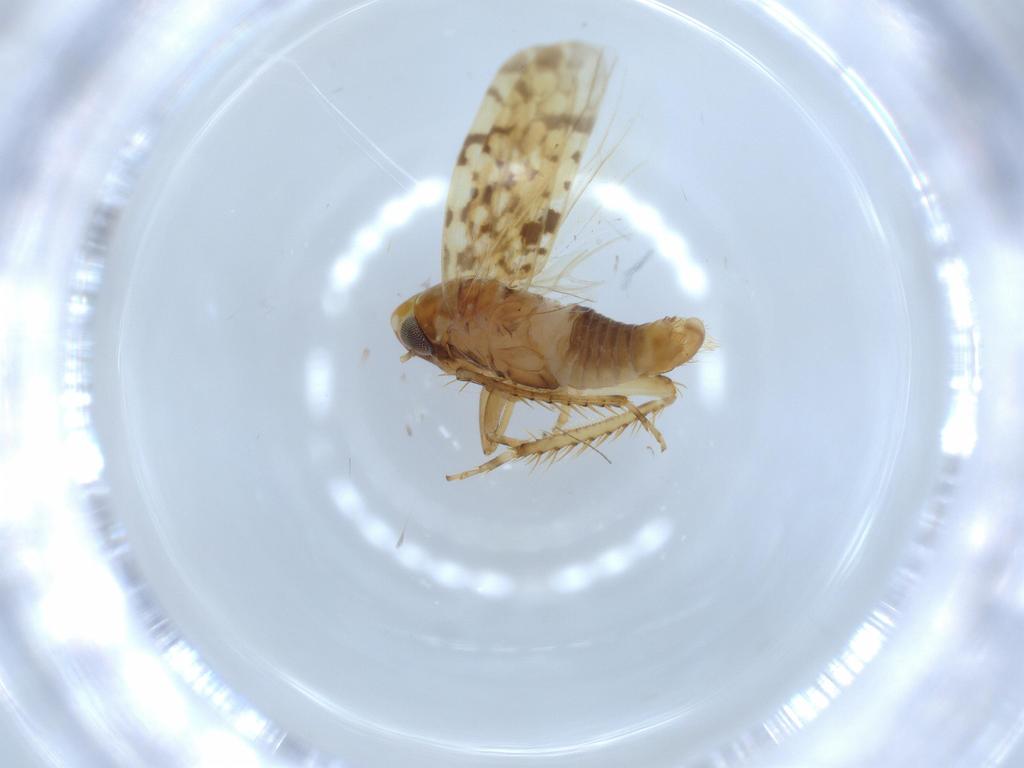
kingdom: Animalia
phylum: Arthropoda
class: Insecta
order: Hemiptera
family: Cicadellidae
